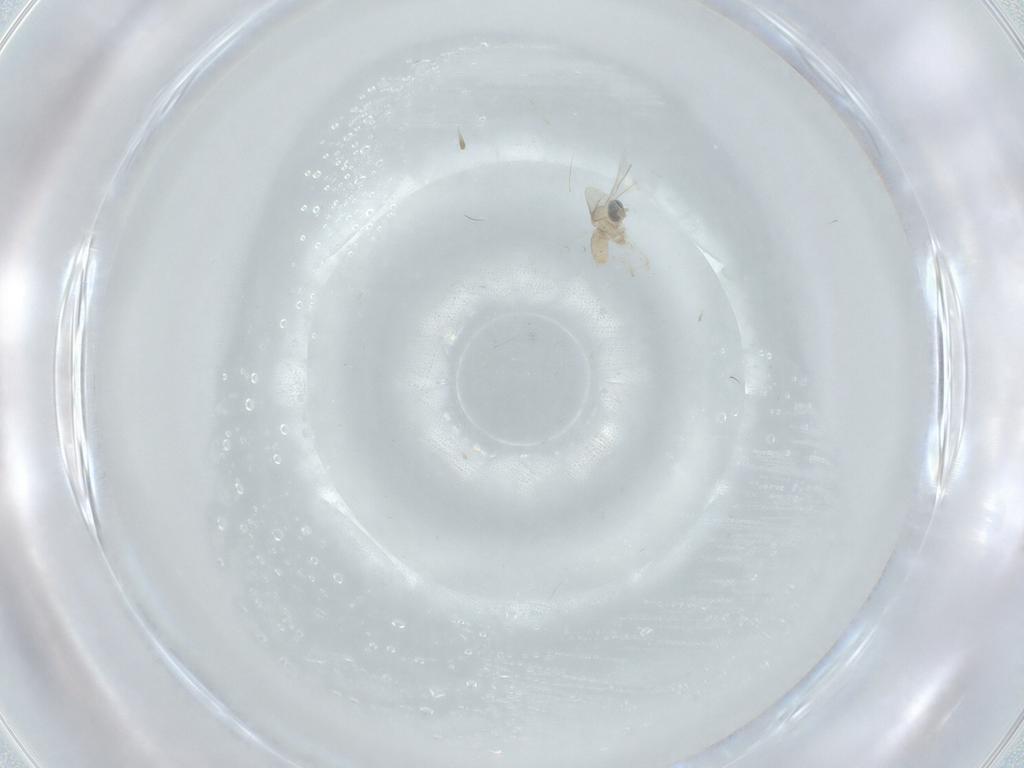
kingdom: Animalia
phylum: Arthropoda
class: Insecta
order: Diptera
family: Cecidomyiidae
